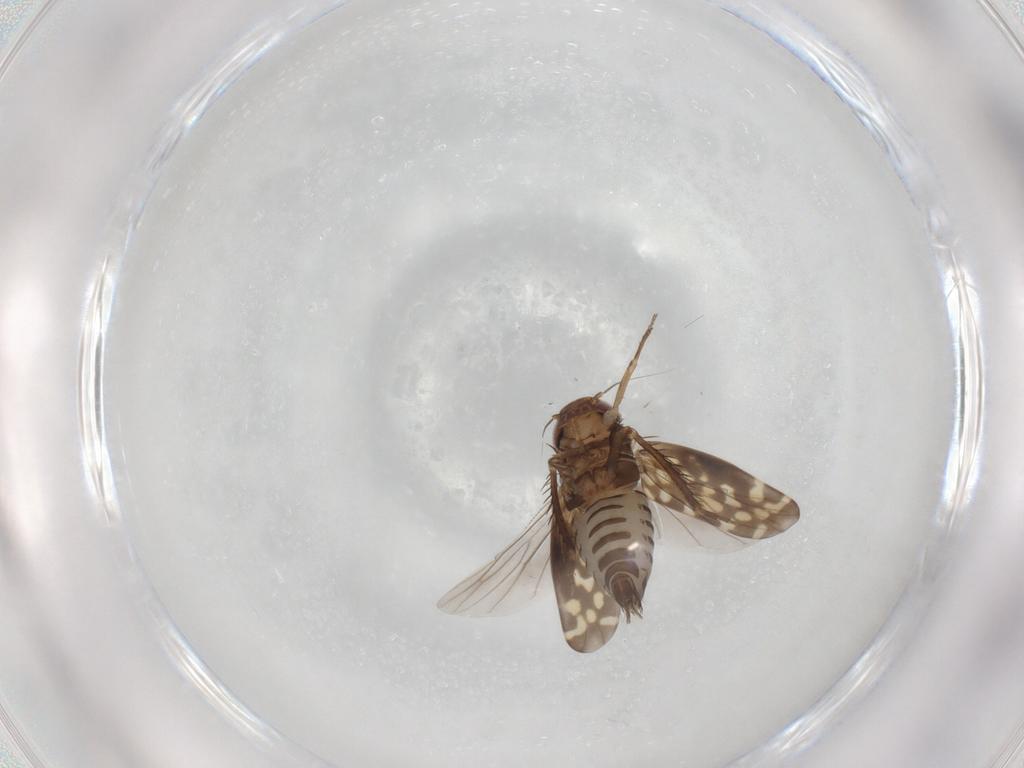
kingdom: Animalia
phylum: Arthropoda
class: Insecta
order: Hemiptera
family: Cicadellidae
